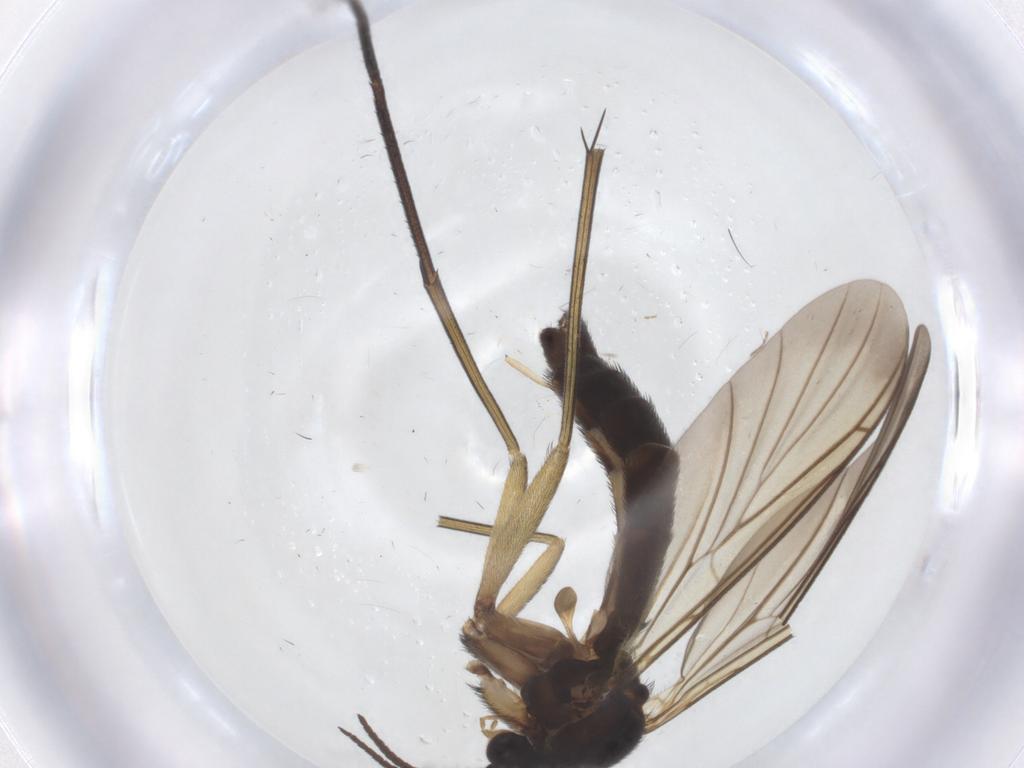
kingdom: Animalia
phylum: Arthropoda
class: Insecta
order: Diptera
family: Keroplatidae
